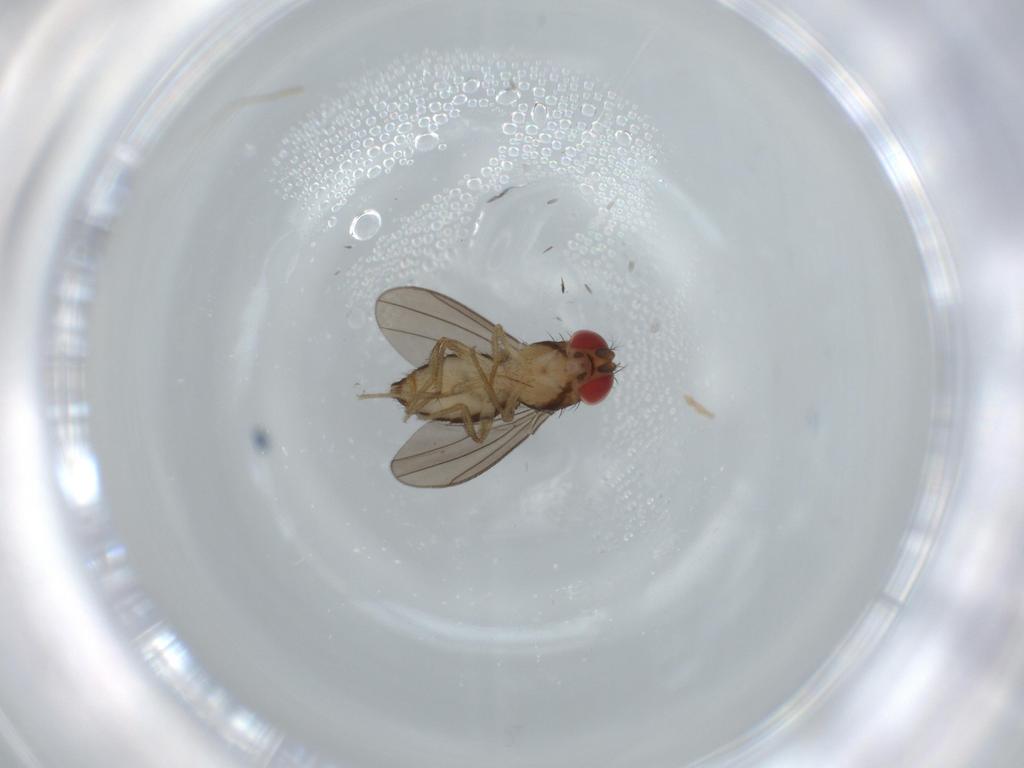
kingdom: Animalia
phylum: Arthropoda
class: Insecta
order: Diptera
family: Drosophilidae
